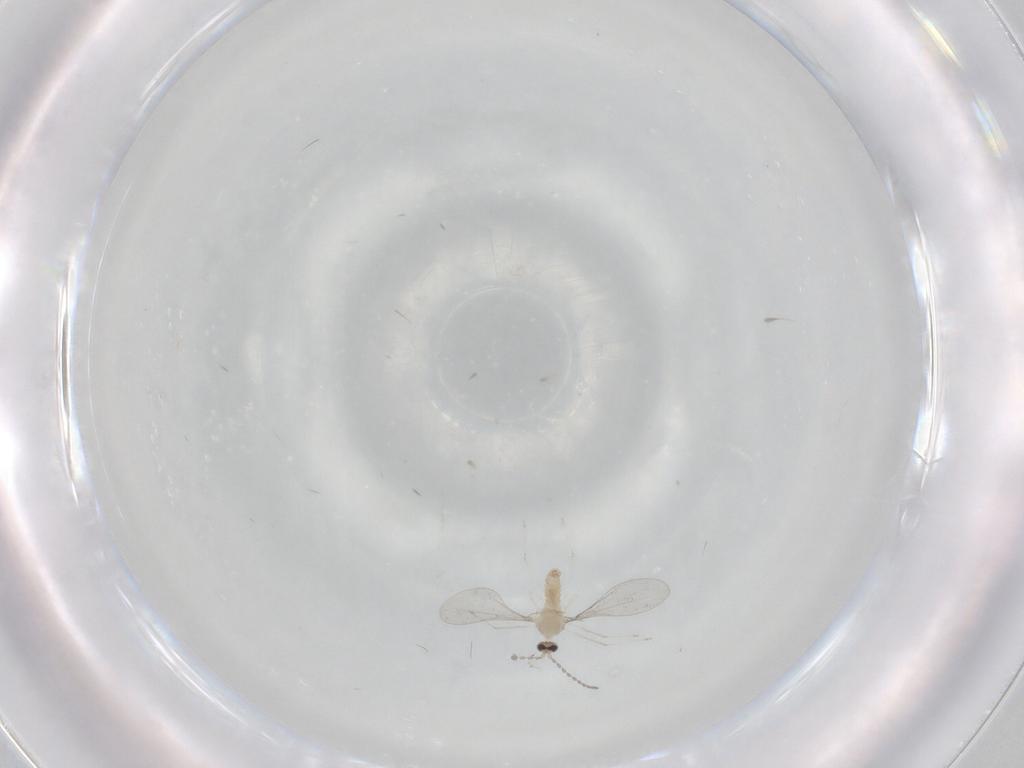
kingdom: Animalia
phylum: Arthropoda
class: Insecta
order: Diptera
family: Cecidomyiidae
